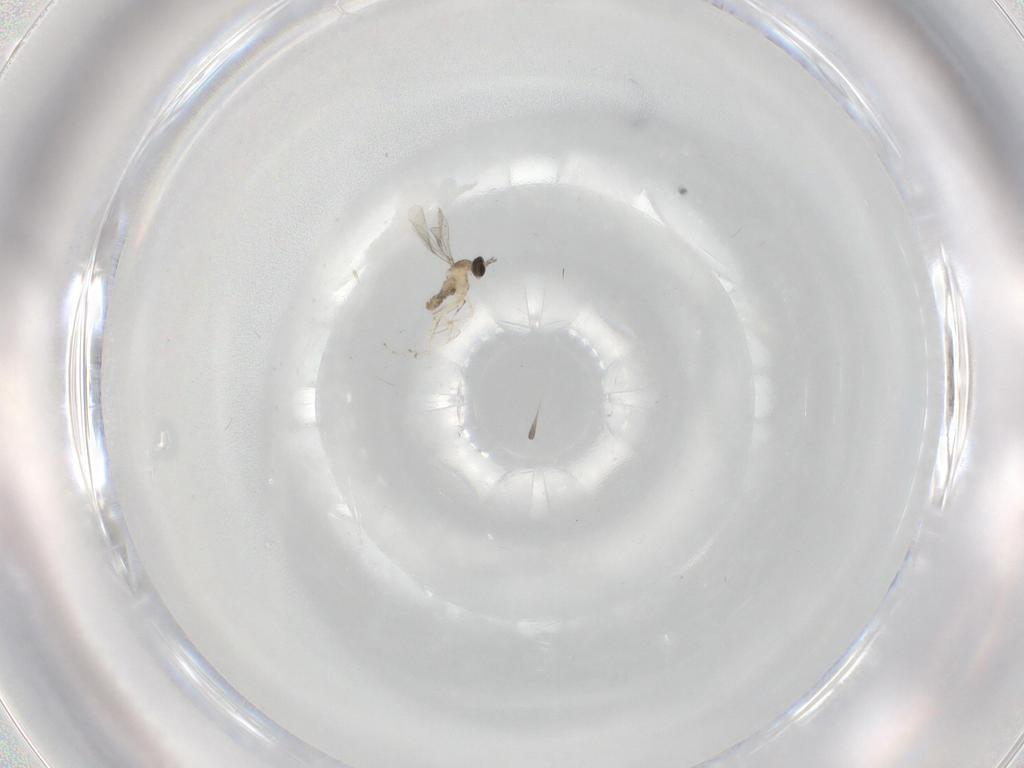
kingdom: Animalia
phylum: Arthropoda
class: Insecta
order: Diptera
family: Cecidomyiidae
